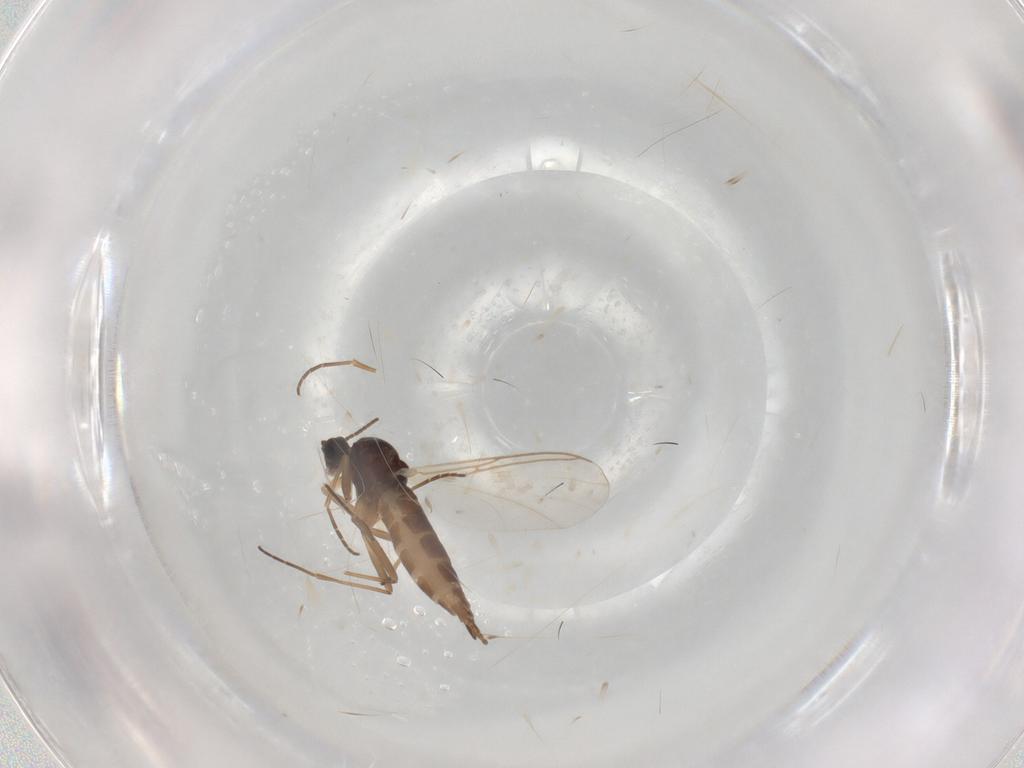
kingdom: Animalia
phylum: Arthropoda
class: Insecta
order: Diptera
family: Sciaridae
